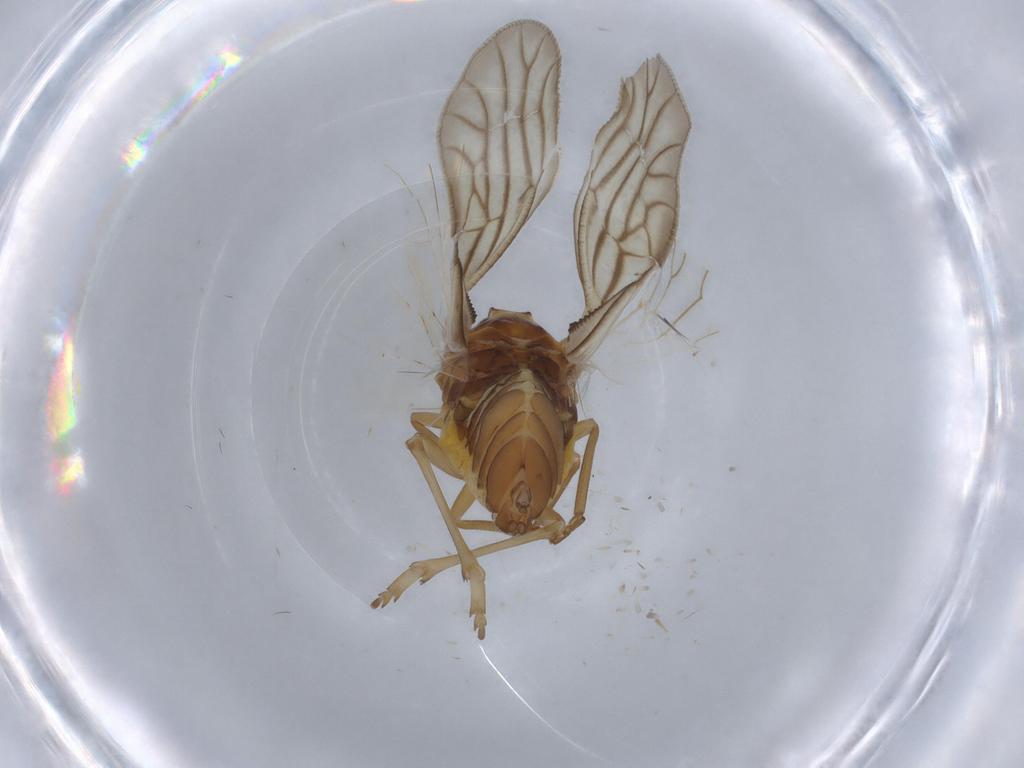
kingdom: Animalia
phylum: Arthropoda
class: Insecta
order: Hemiptera
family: Meenoplidae
